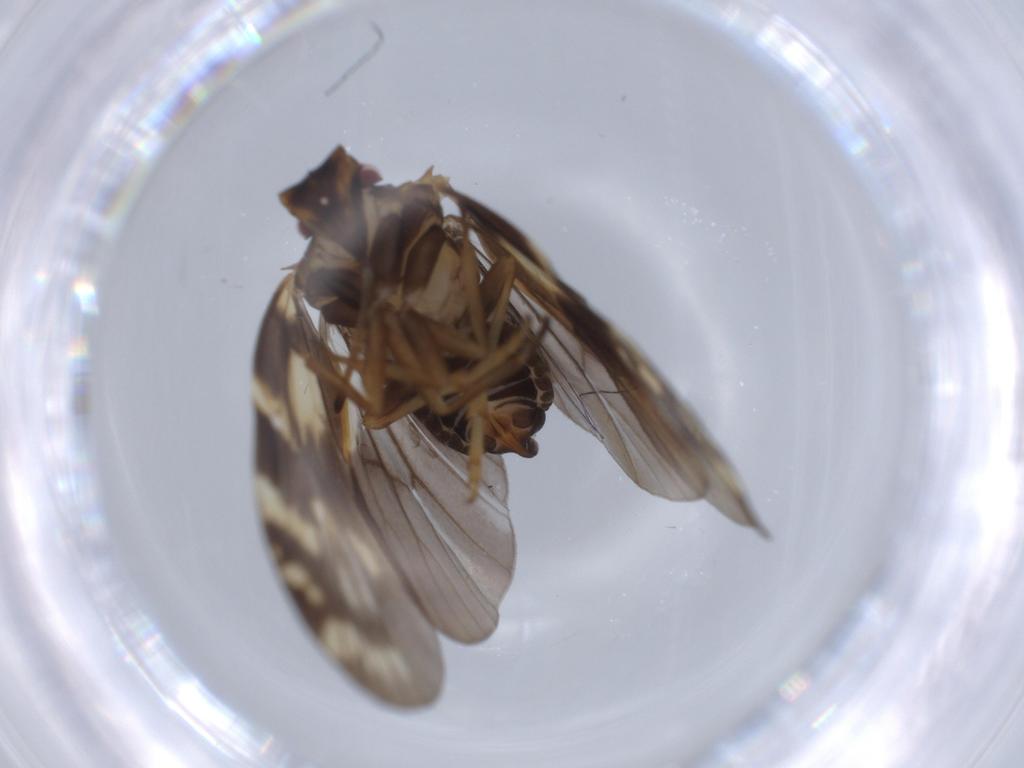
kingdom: Animalia
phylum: Arthropoda
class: Insecta
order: Hemiptera
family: Cixiidae
